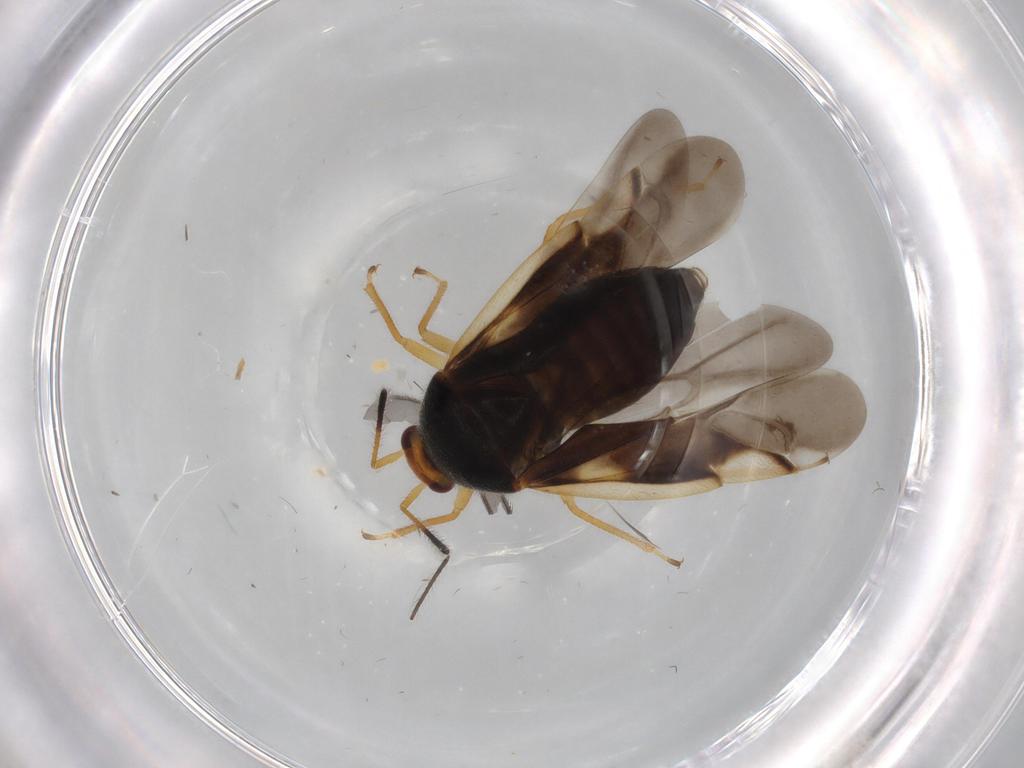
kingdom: Animalia
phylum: Arthropoda
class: Insecta
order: Hemiptera
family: Miridae
